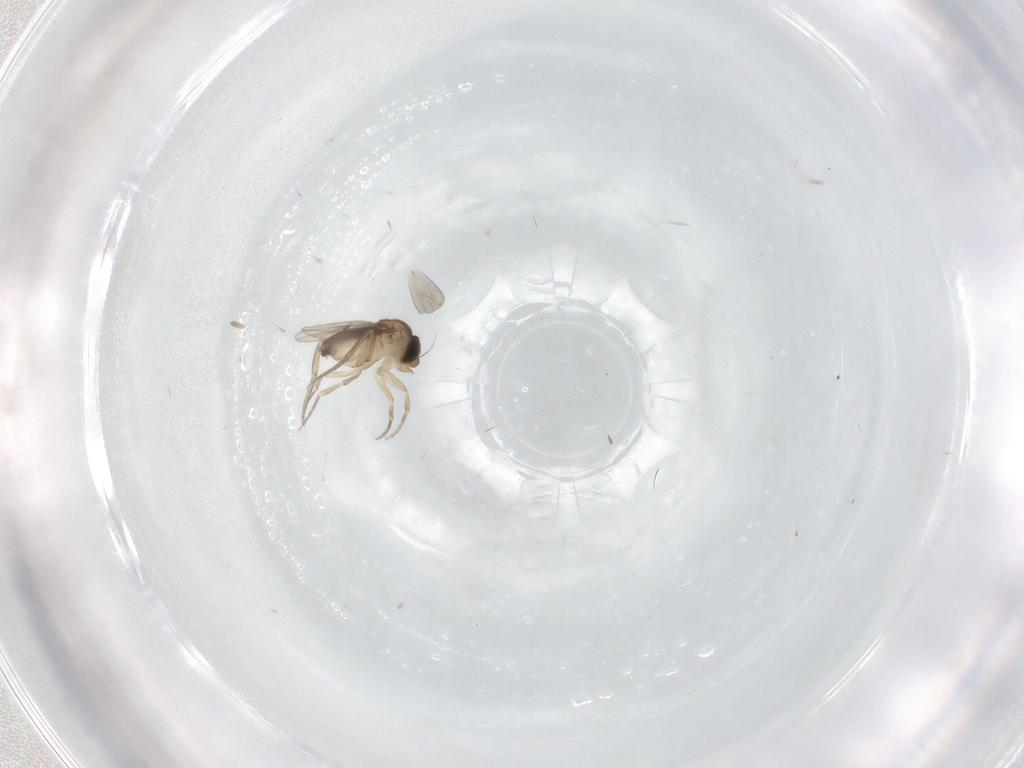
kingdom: Animalia
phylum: Arthropoda
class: Insecta
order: Diptera
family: Phoridae
